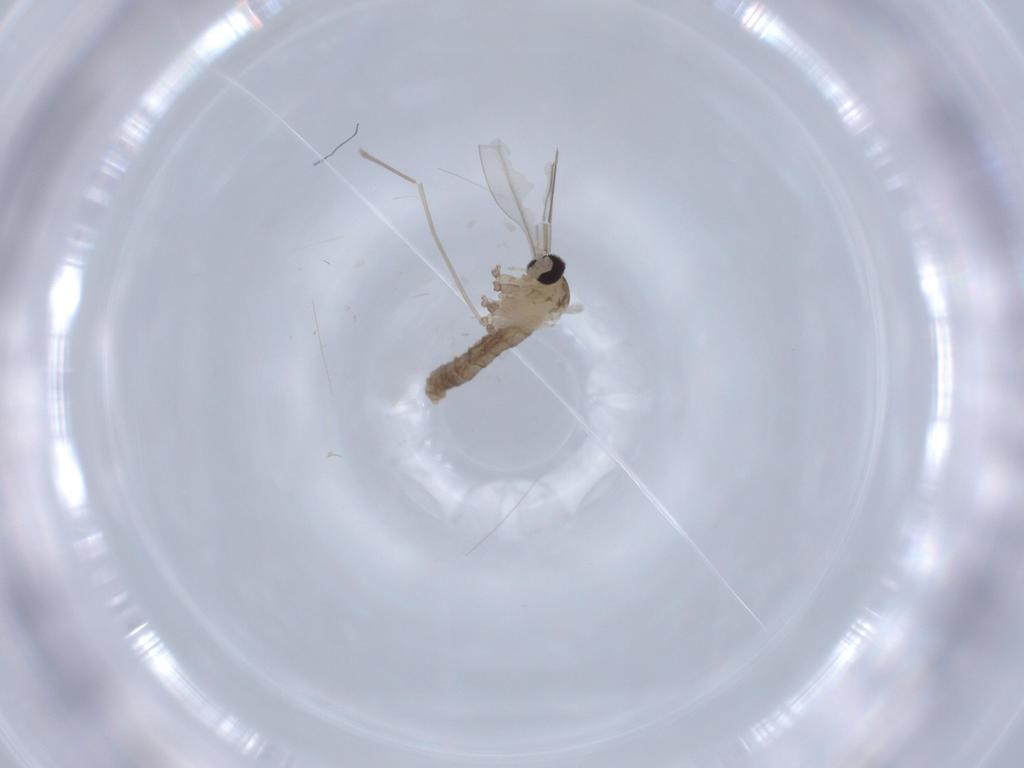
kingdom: Animalia
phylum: Arthropoda
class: Insecta
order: Diptera
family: Cecidomyiidae
